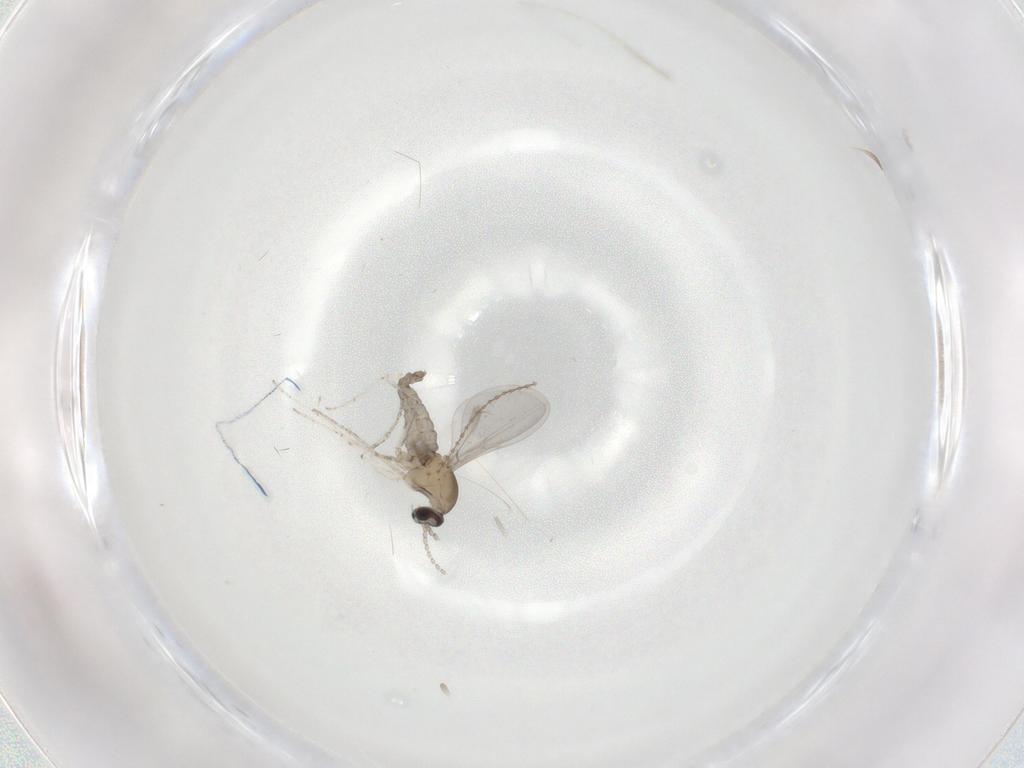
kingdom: Animalia
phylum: Arthropoda
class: Insecta
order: Diptera
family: Cecidomyiidae
